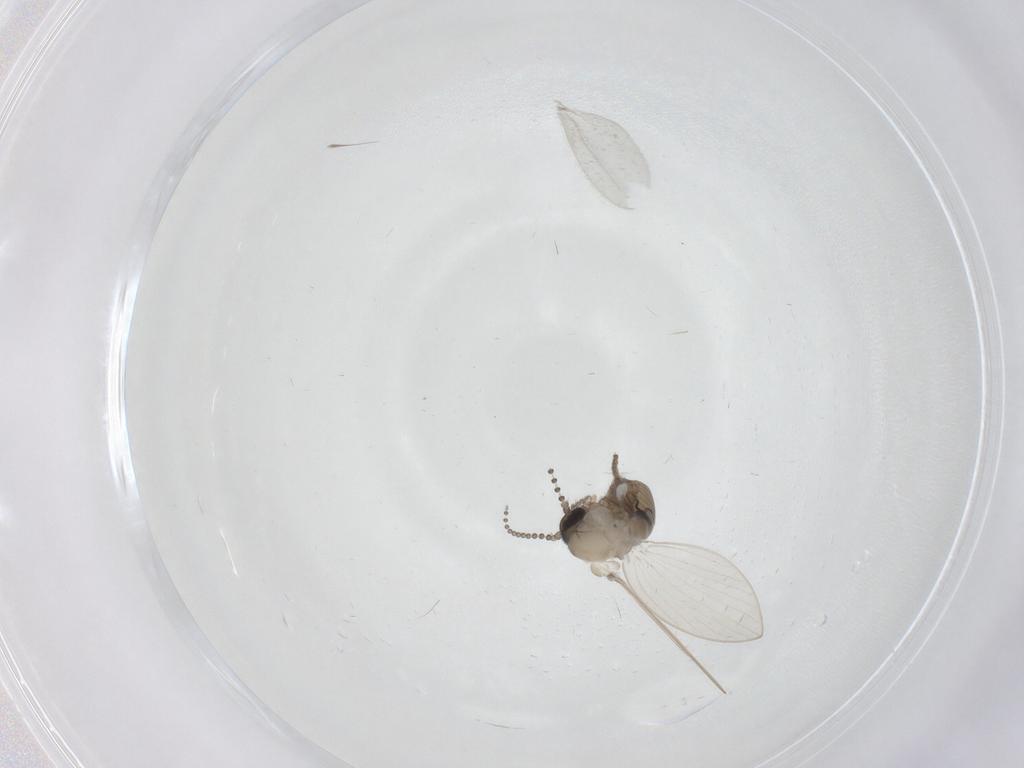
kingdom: Animalia
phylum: Arthropoda
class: Insecta
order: Diptera
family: Psychodidae
